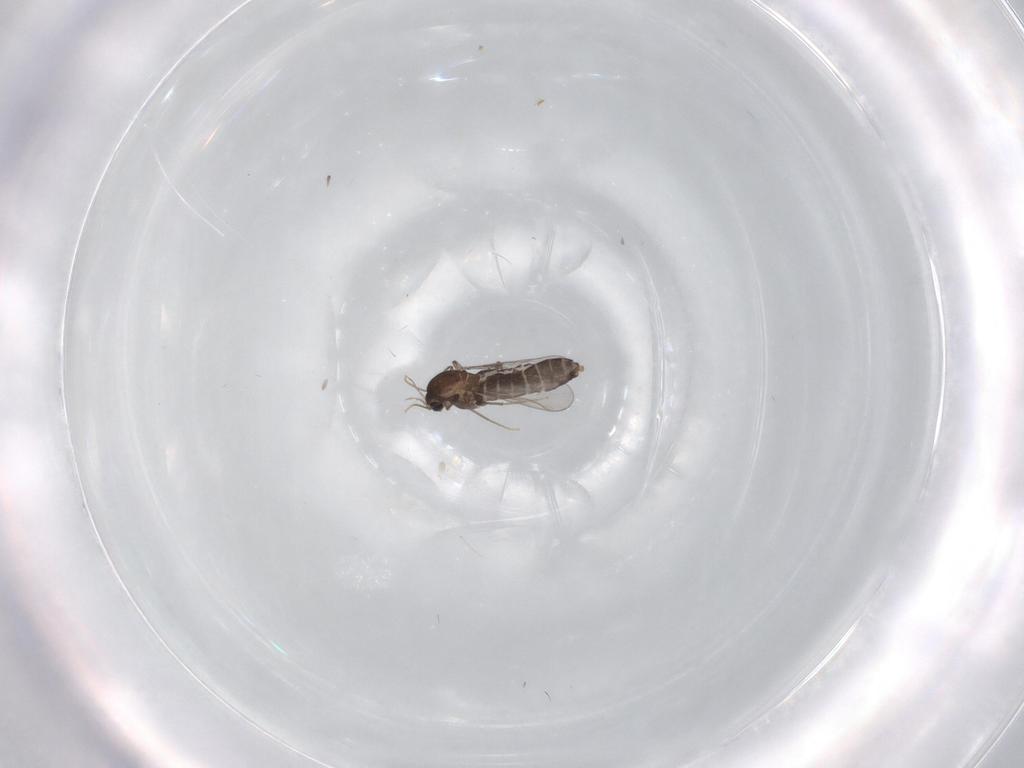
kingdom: Animalia
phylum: Arthropoda
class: Insecta
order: Diptera
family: Chironomidae
